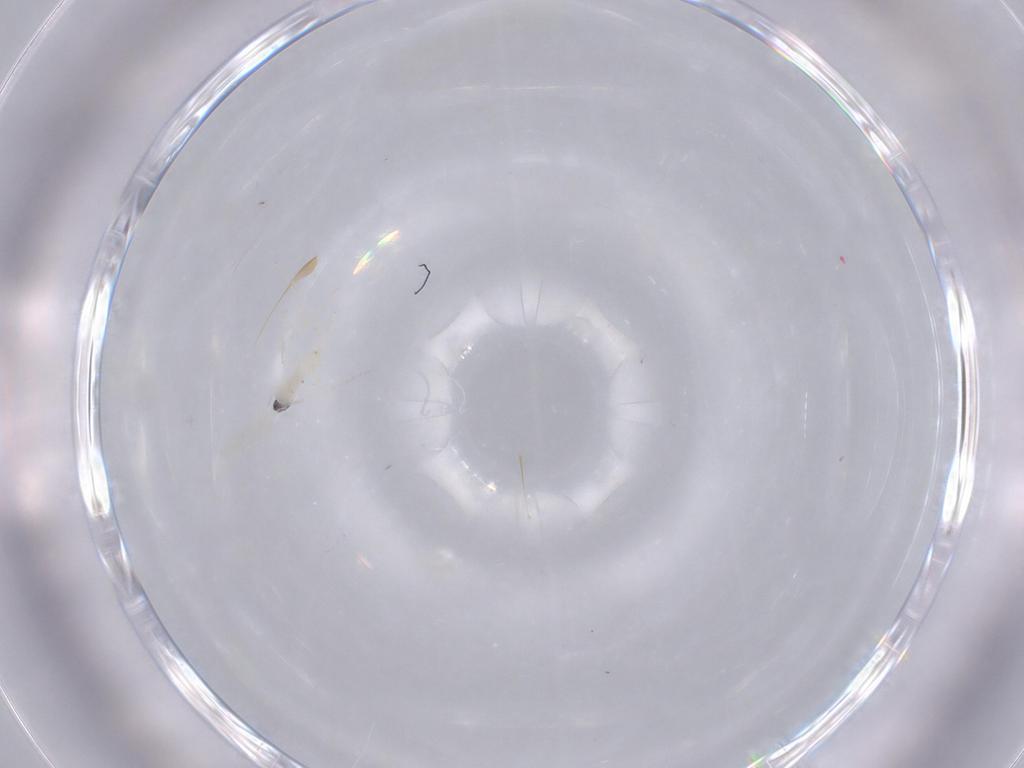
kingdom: Animalia
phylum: Arthropoda
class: Insecta
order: Diptera
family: Cecidomyiidae
